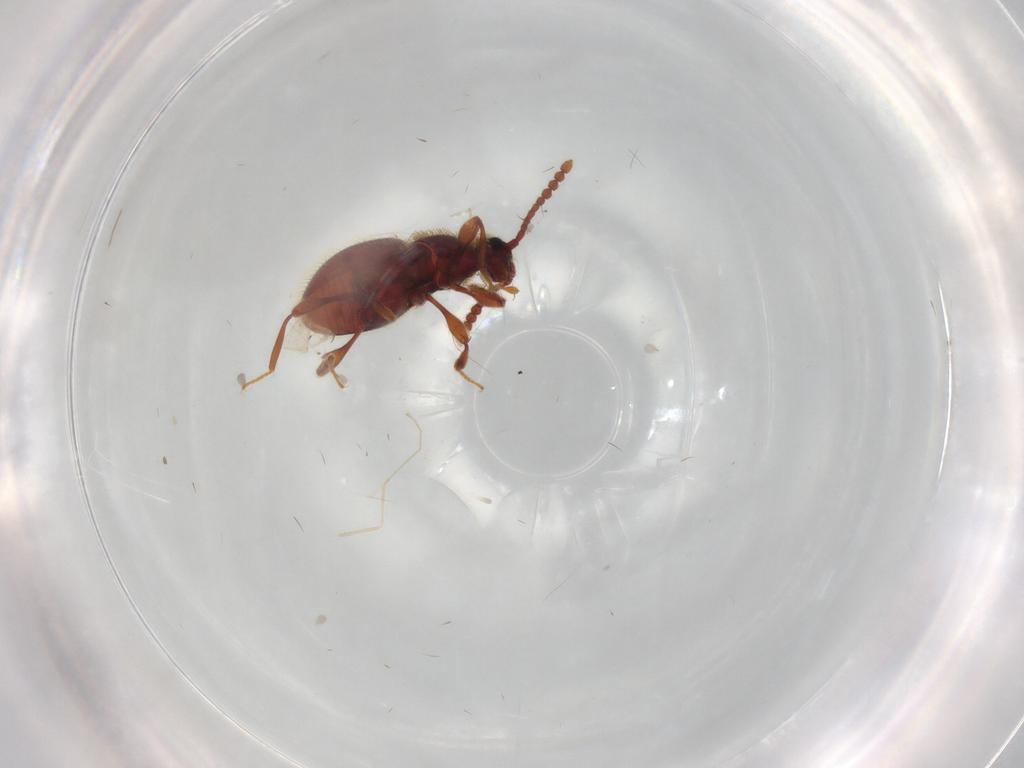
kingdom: Animalia
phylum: Arthropoda
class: Insecta
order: Coleoptera
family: Staphylinidae
